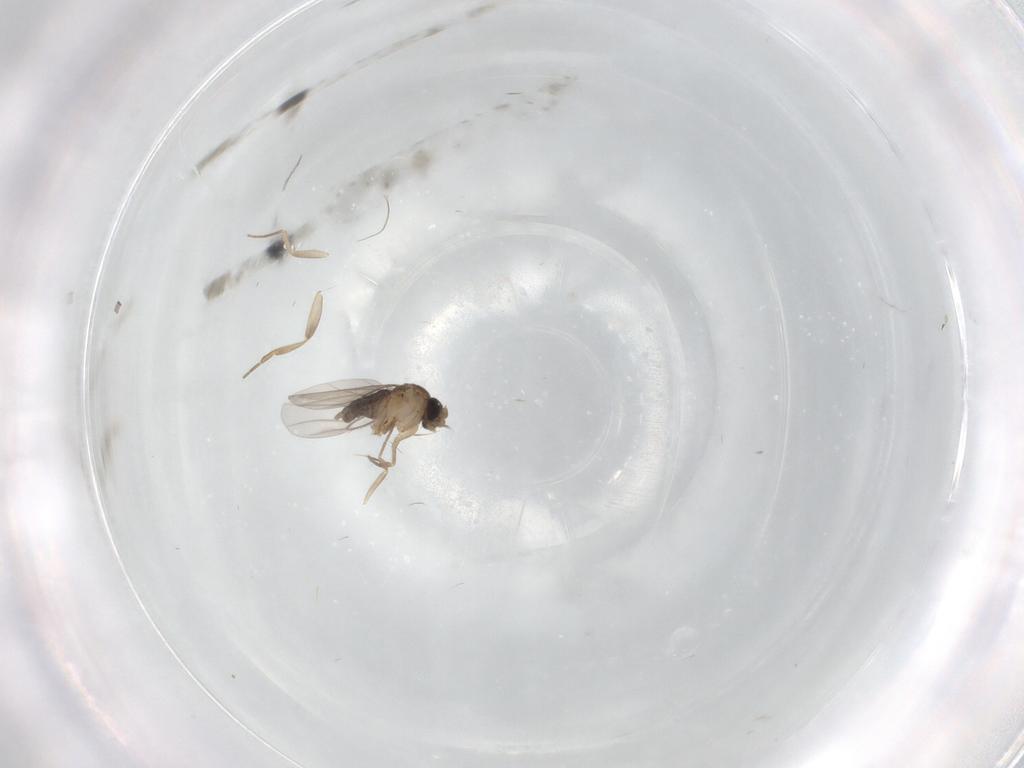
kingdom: Animalia
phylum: Arthropoda
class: Insecta
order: Diptera
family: Psychodidae
